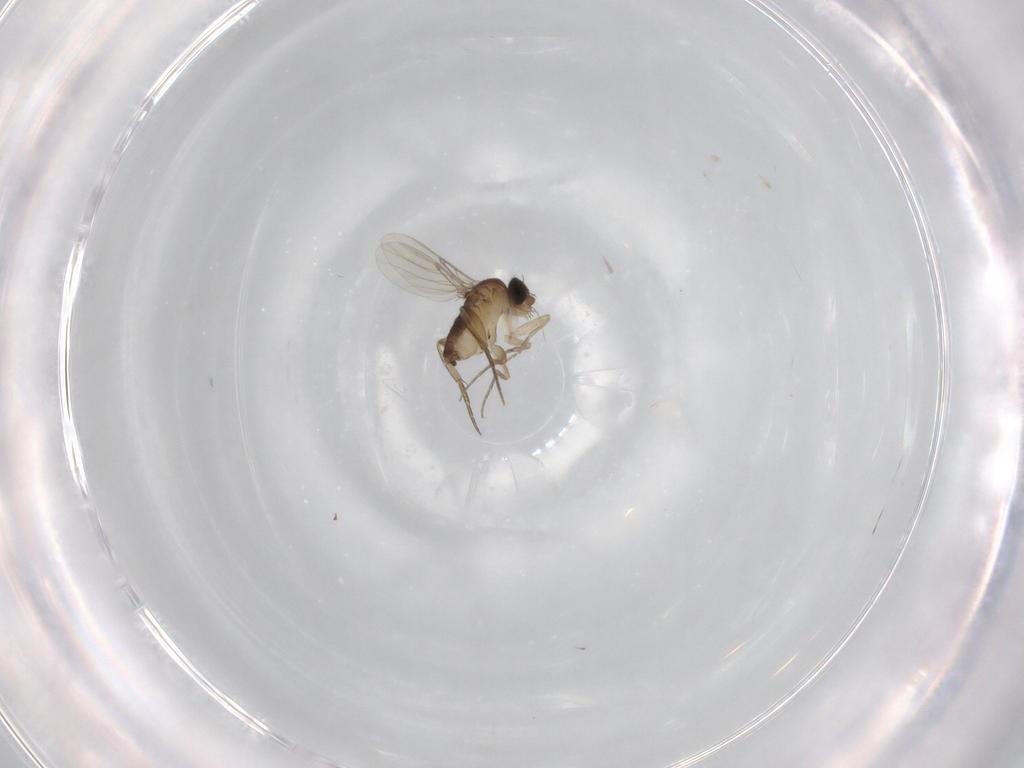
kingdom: Animalia
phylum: Arthropoda
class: Insecta
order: Diptera
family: Phoridae
